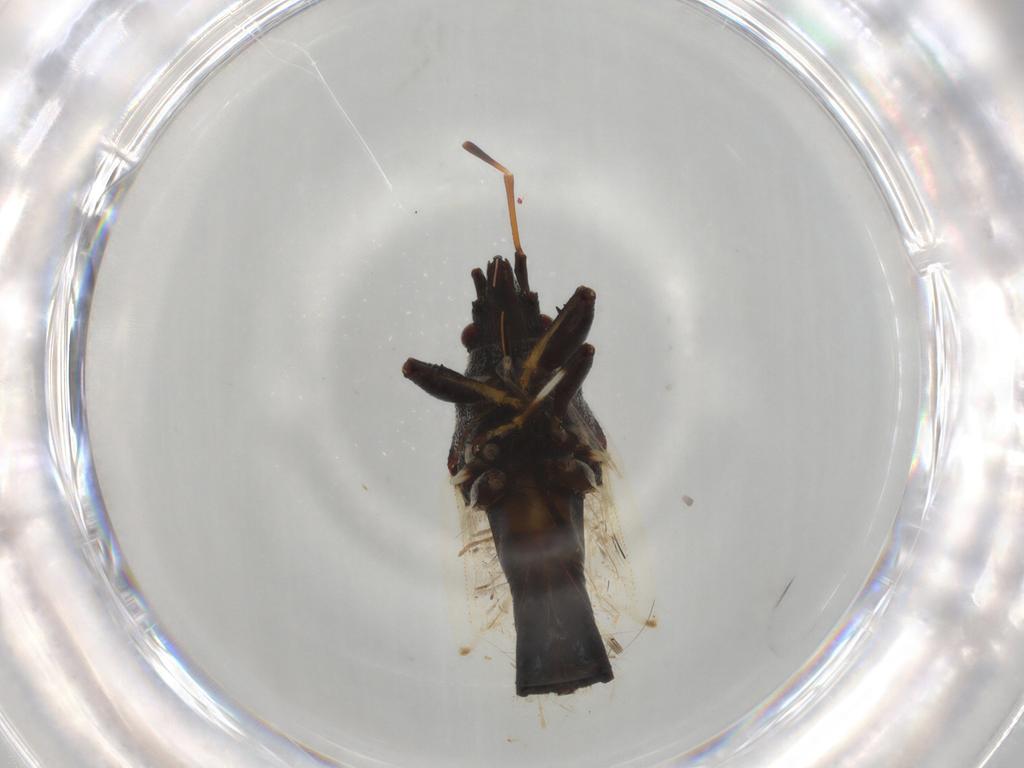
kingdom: Animalia
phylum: Arthropoda
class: Insecta
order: Hemiptera
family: Oxycarenidae
